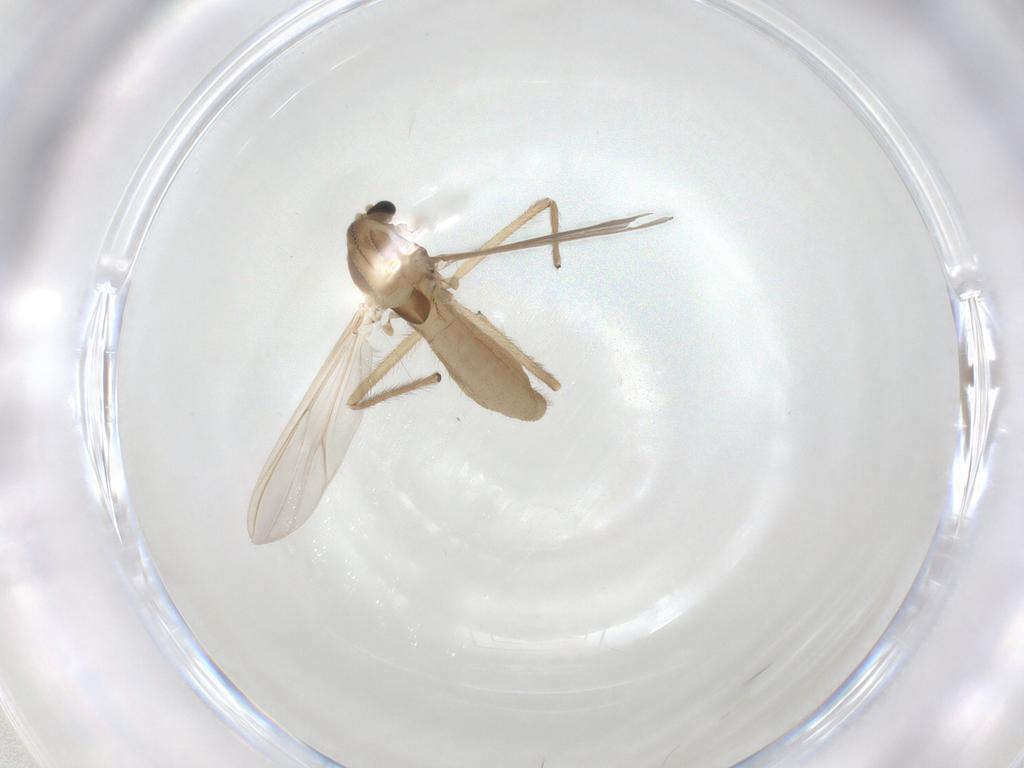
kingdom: Animalia
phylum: Arthropoda
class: Insecta
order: Diptera
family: Chironomidae
